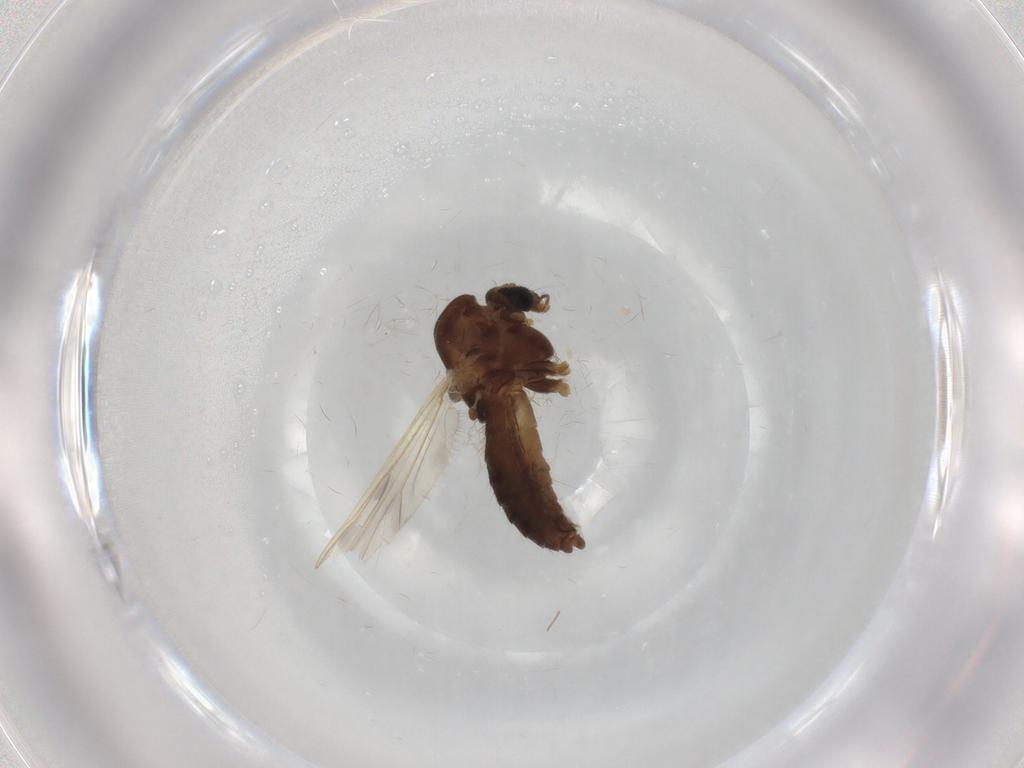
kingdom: Animalia
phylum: Arthropoda
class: Insecta
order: Diptera
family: Chironomidae
